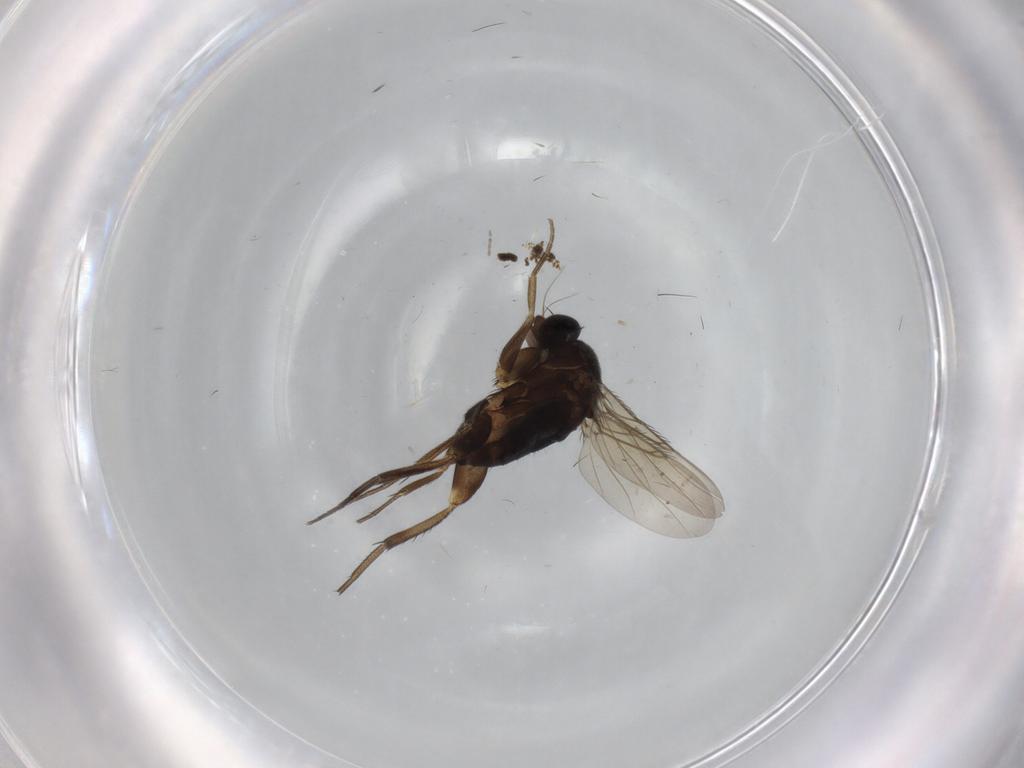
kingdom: Animalia
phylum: Arthropoda
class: Insecta
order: Diptera
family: Phoridae
